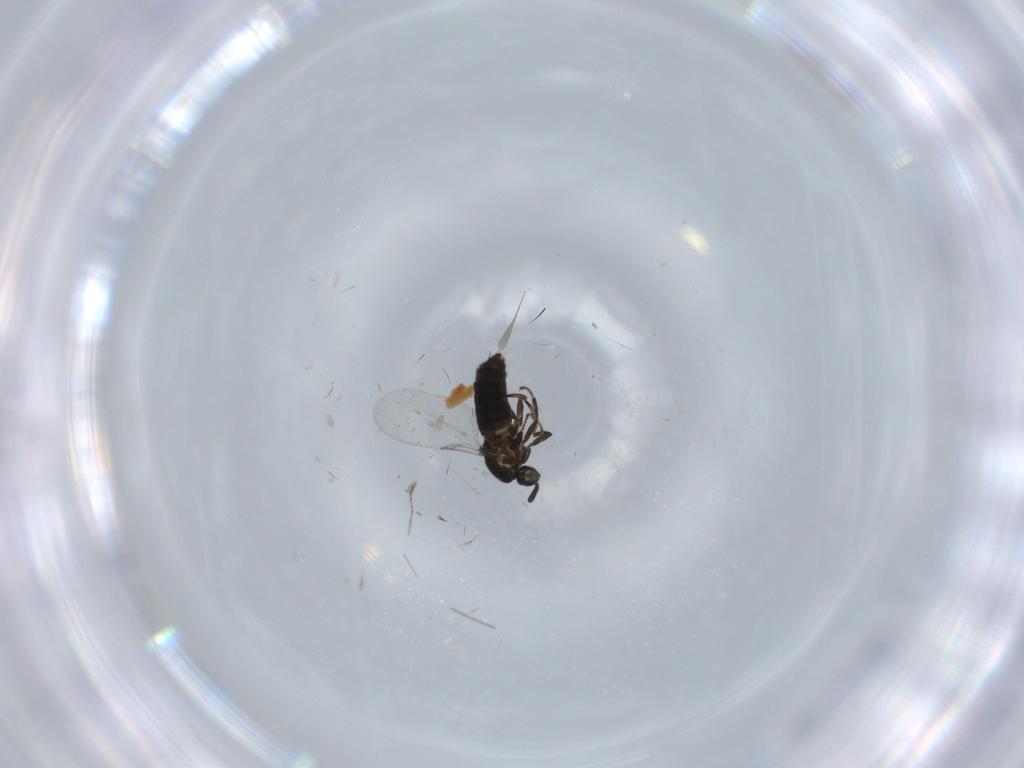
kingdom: Animalia
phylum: Arthropoda
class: Insecta
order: Diptera
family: Scatopsidae
